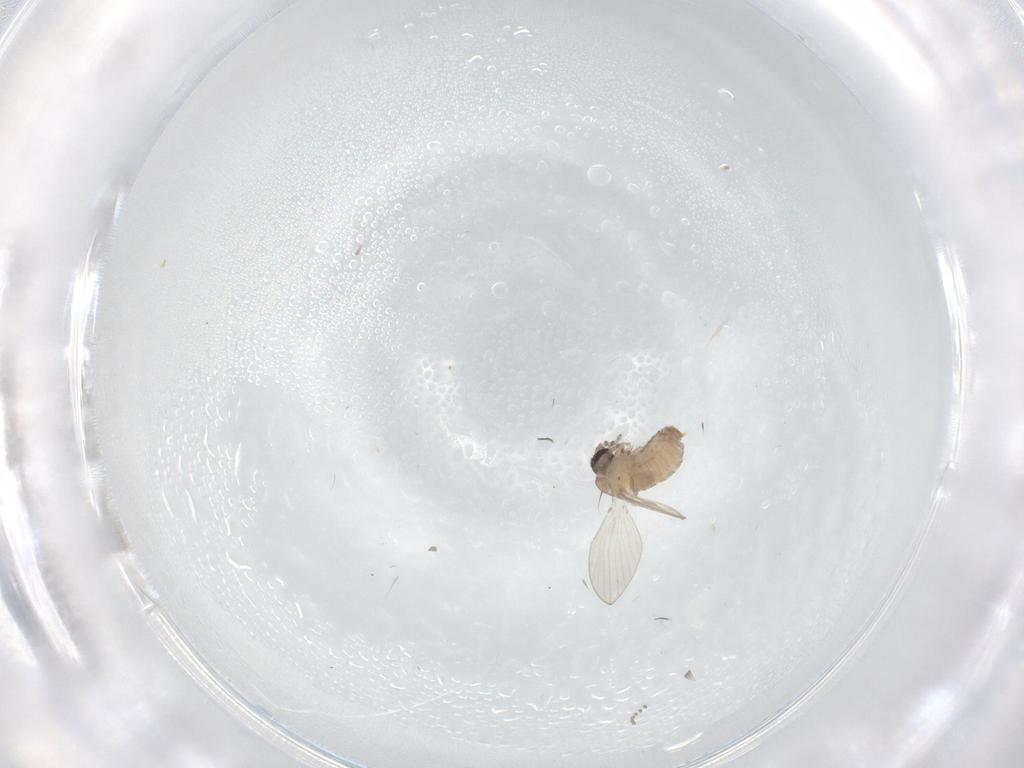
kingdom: Animalia
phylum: Arthropoda
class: Insecta
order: Diptera
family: Psychodidae
